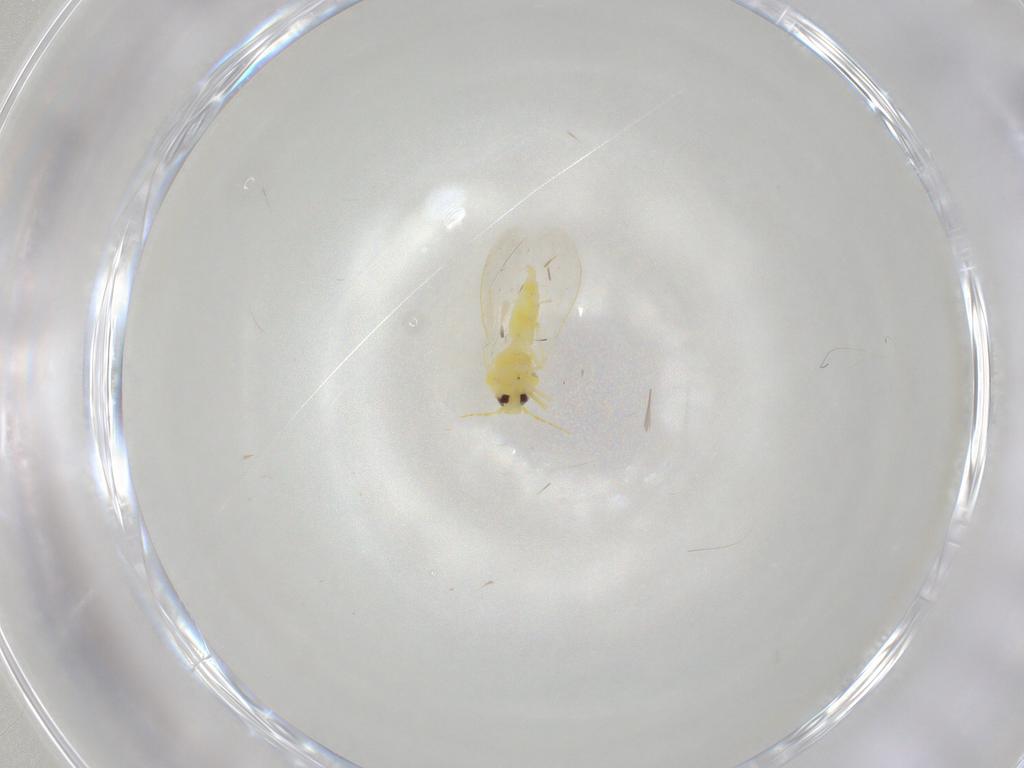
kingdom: Animalia
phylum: Arthropoda
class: Insecta
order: Hemiptera
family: Aleyrodidae
